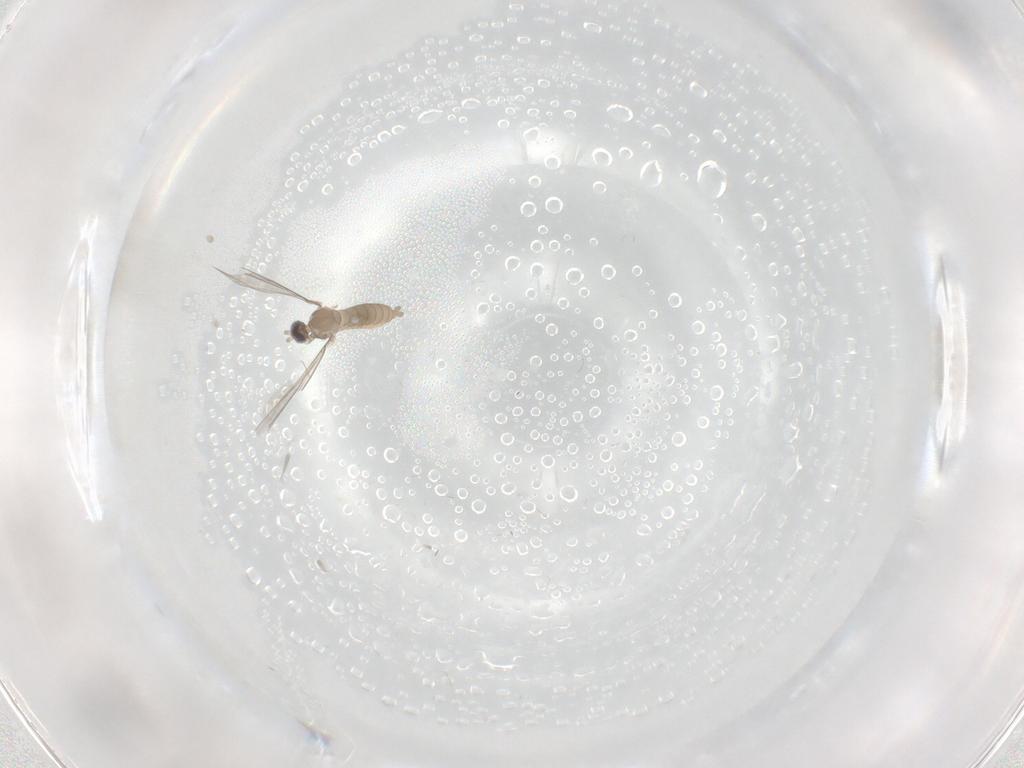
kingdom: Animalia
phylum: Arthropoda
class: Insecta
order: Diptera
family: Cecidomyiidae
